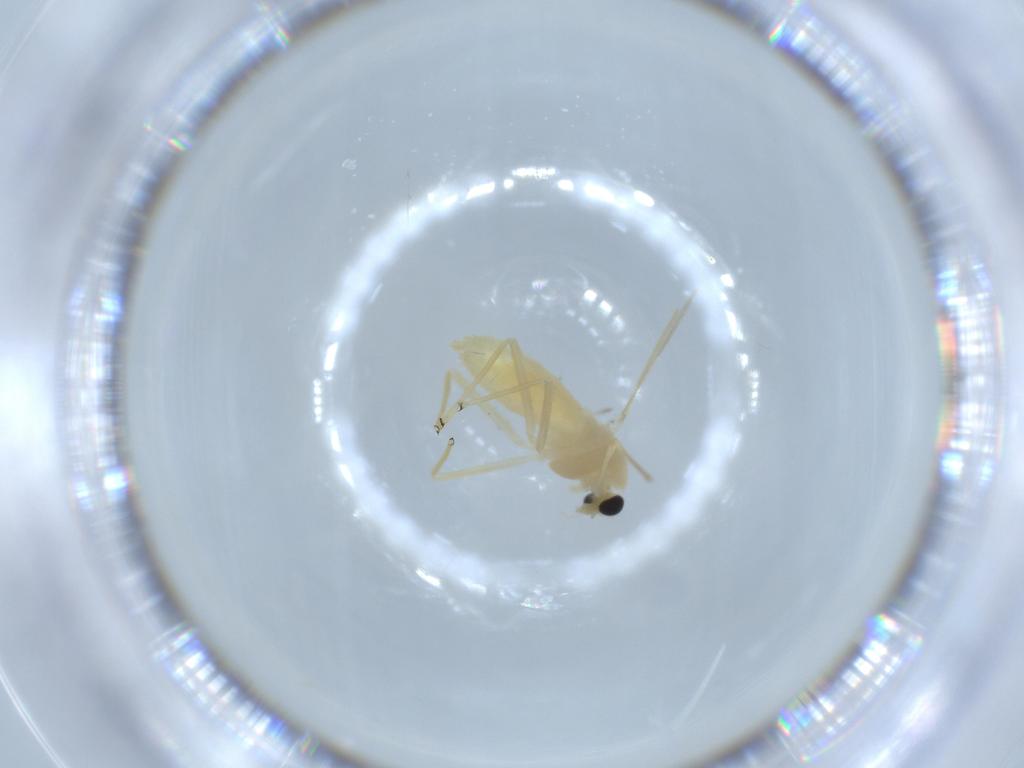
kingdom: Animalia
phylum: Arthropoda
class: Insecta
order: Diptera
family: Chironomidae
